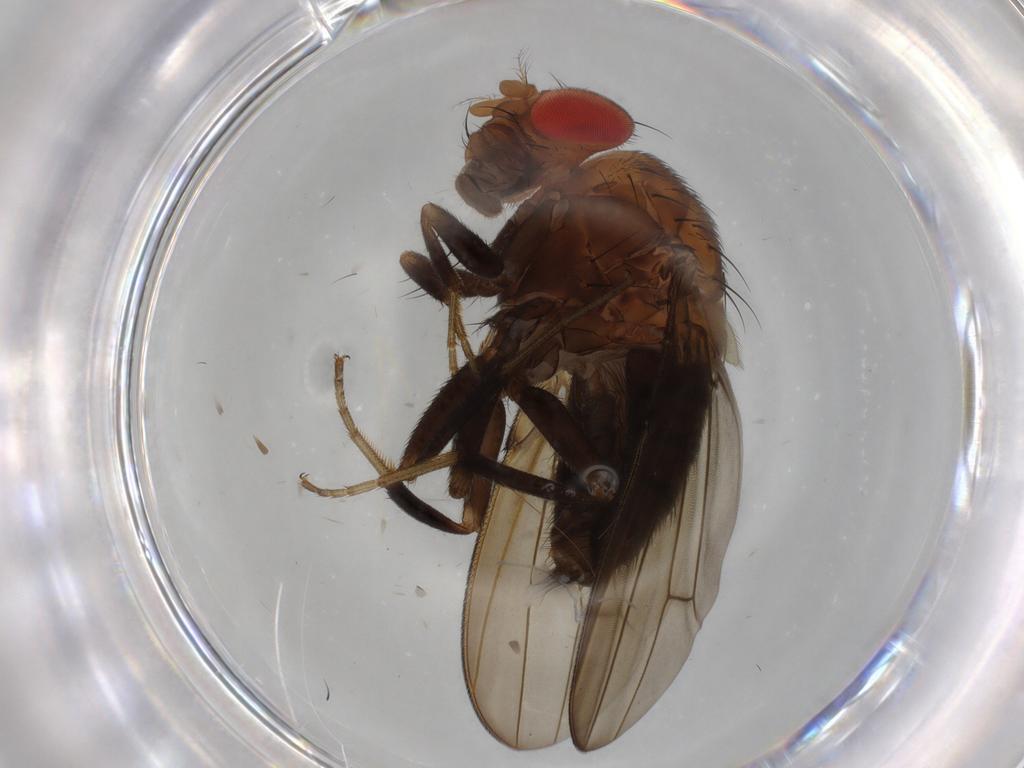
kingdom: Animalia
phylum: Arthropoda
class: Insecta
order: Diptera
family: Drosophilidae
